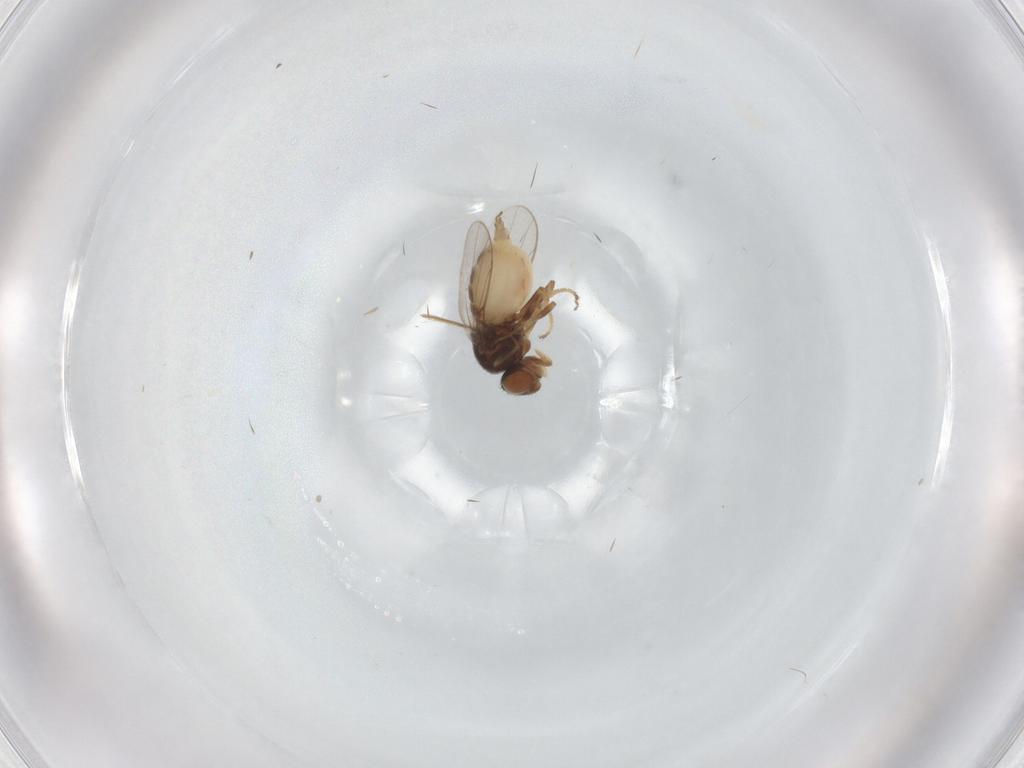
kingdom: Animalia
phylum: Arthropoda
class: Insecta
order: Diptera
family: Chloropidae
